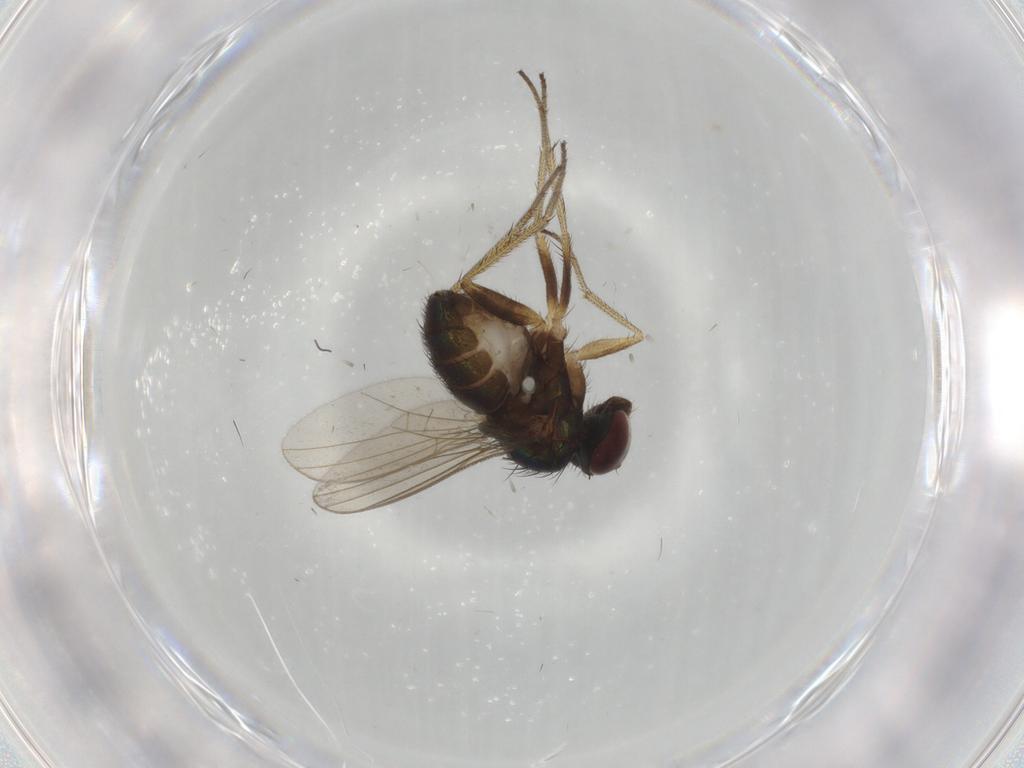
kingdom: Animalia
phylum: Arthropoda
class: Insecta
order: Diptera
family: Cecidomyiidae
